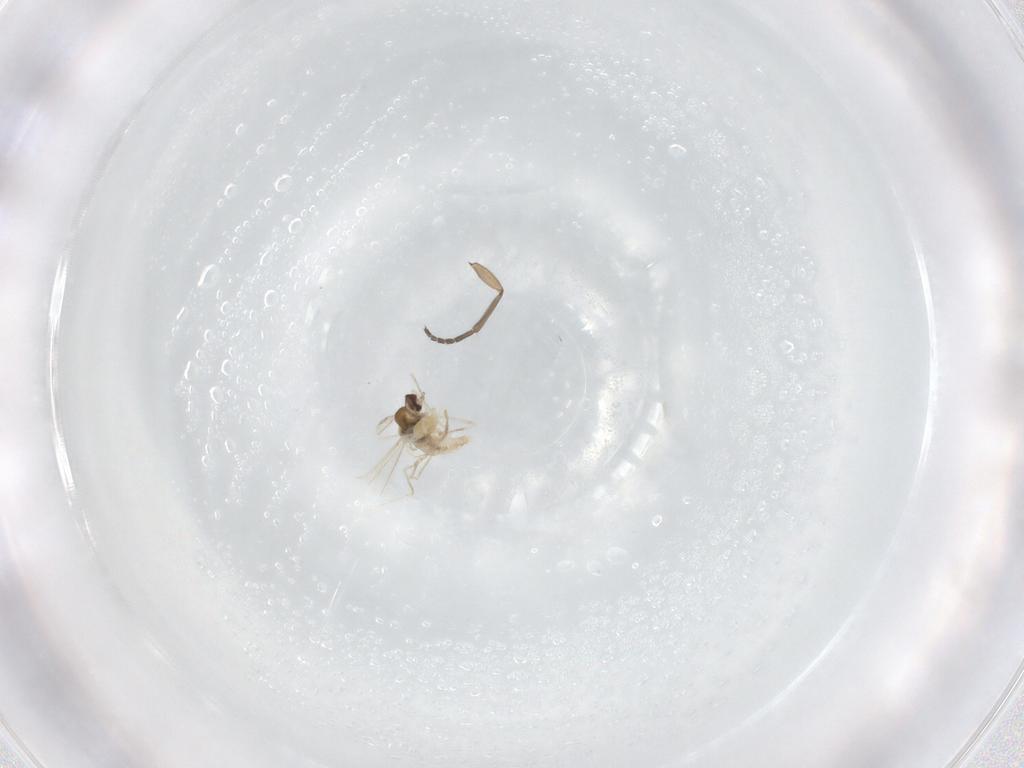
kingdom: Animalia
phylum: Arthropoda
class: Insecta
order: Diptera
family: Cecidomyiidae
